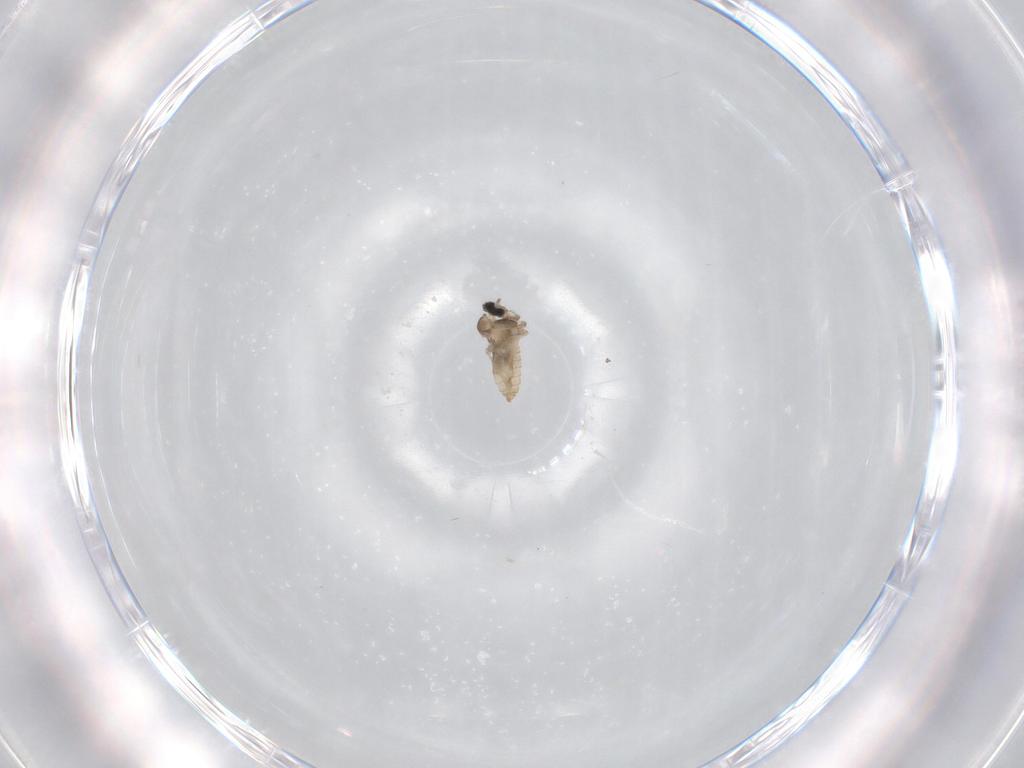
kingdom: Animalia
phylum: Arthropoda
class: Insecta
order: Diptera
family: Cecidomyiidae
